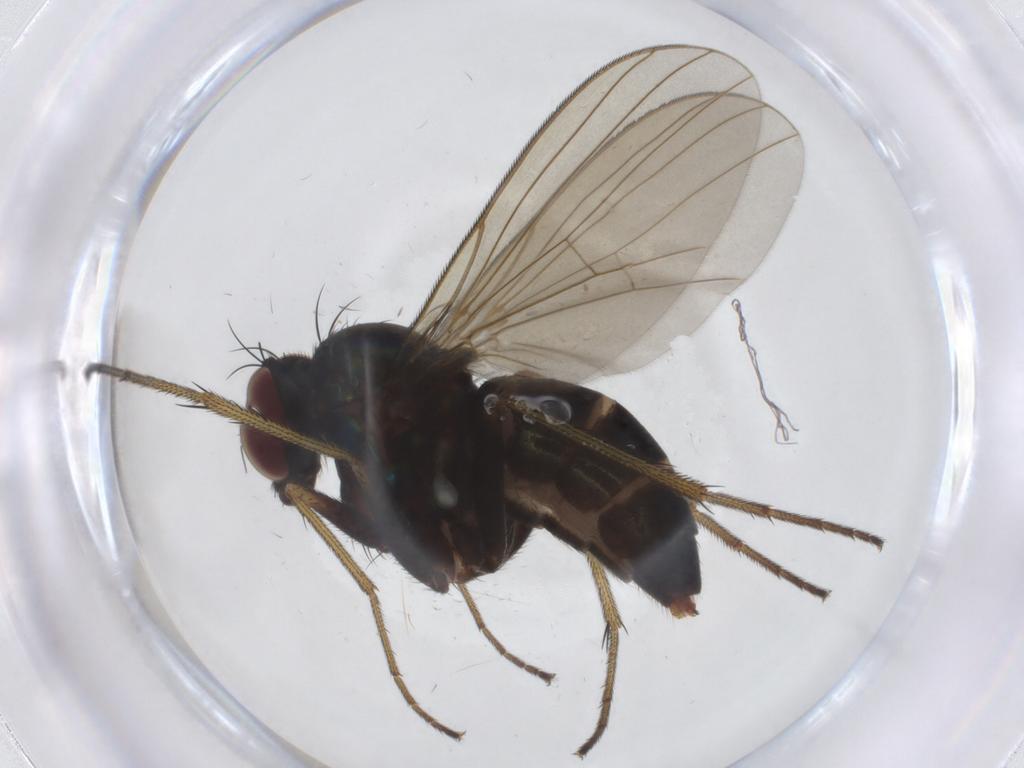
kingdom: Animalia
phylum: Arthropoda
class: Insecta
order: Diptera
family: Dolichopodidae
